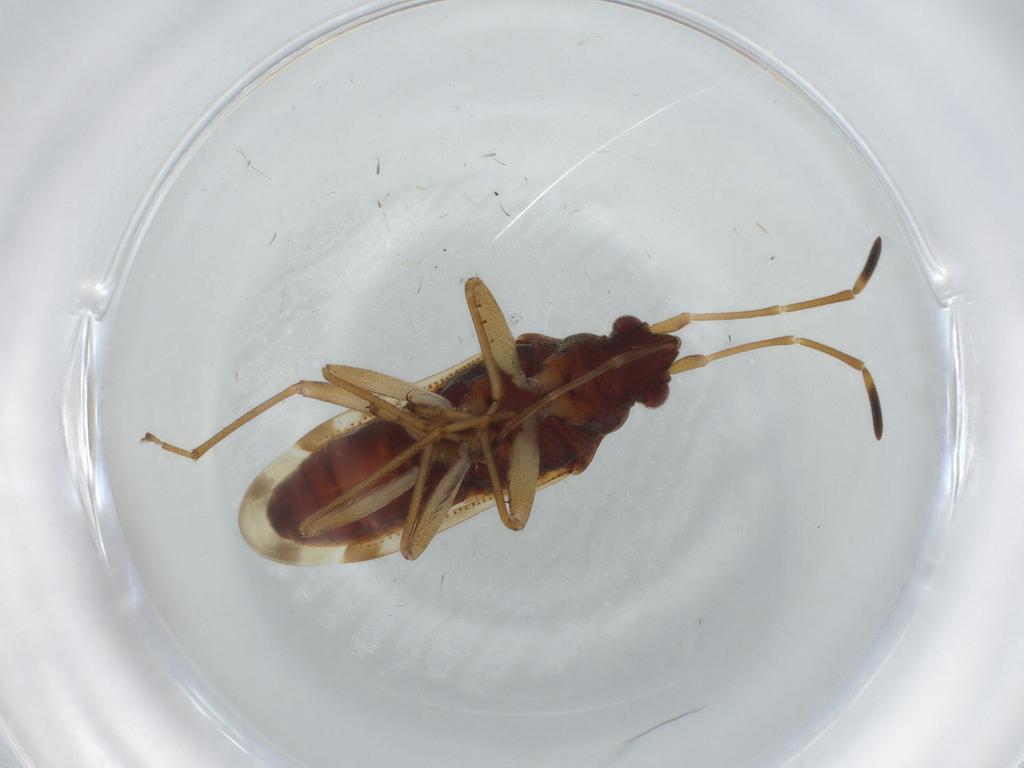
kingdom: Animalia
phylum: Arthropoda
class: Insecta
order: Hemiptera
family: Rhyparochromidae
